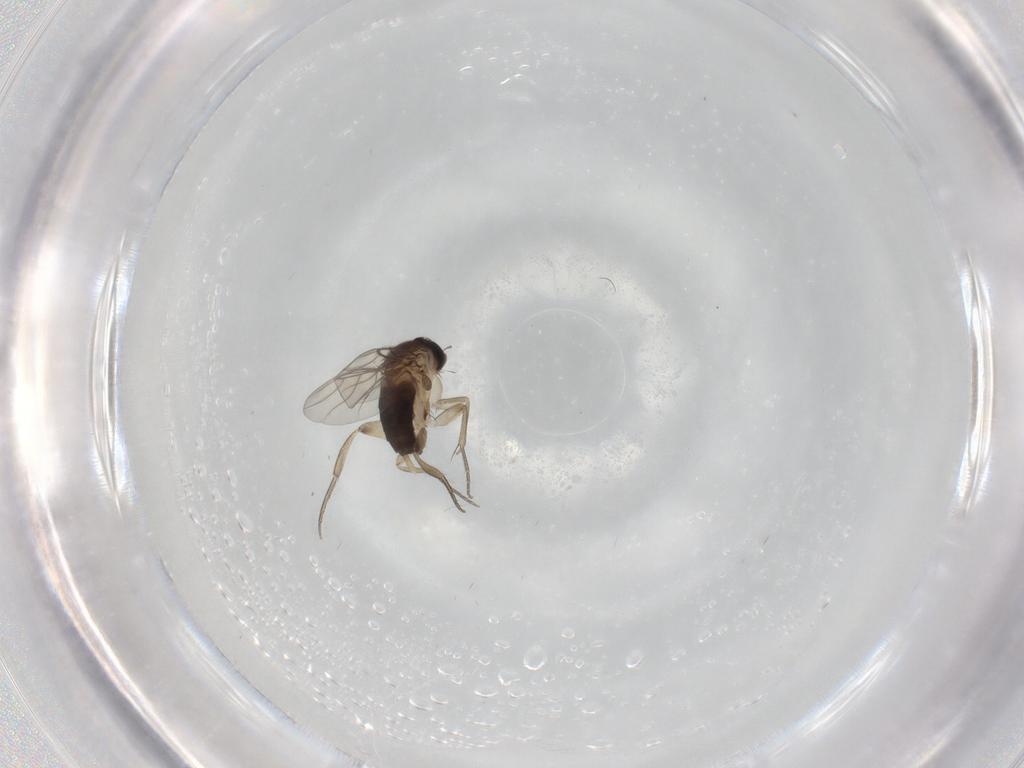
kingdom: Animalia
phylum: Arthropoda
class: Insecta
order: Diptera
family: Phoridae
